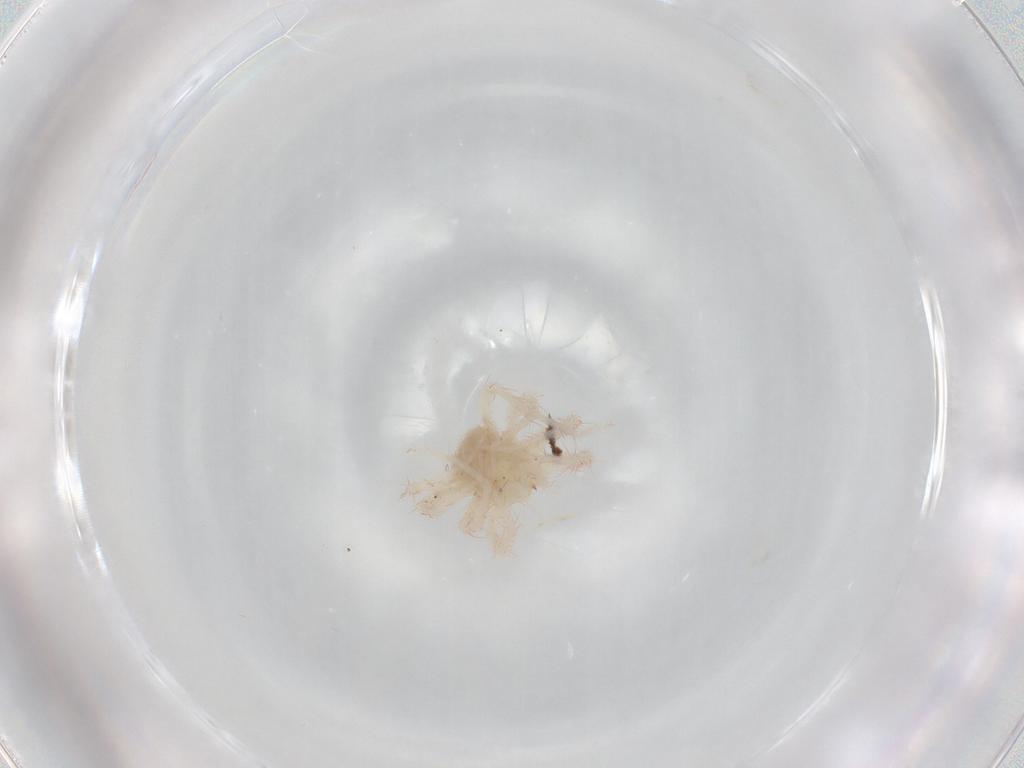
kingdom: Animalia
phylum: Arthropoda
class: Arachnida
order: Trombidiformes
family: Anystidae
